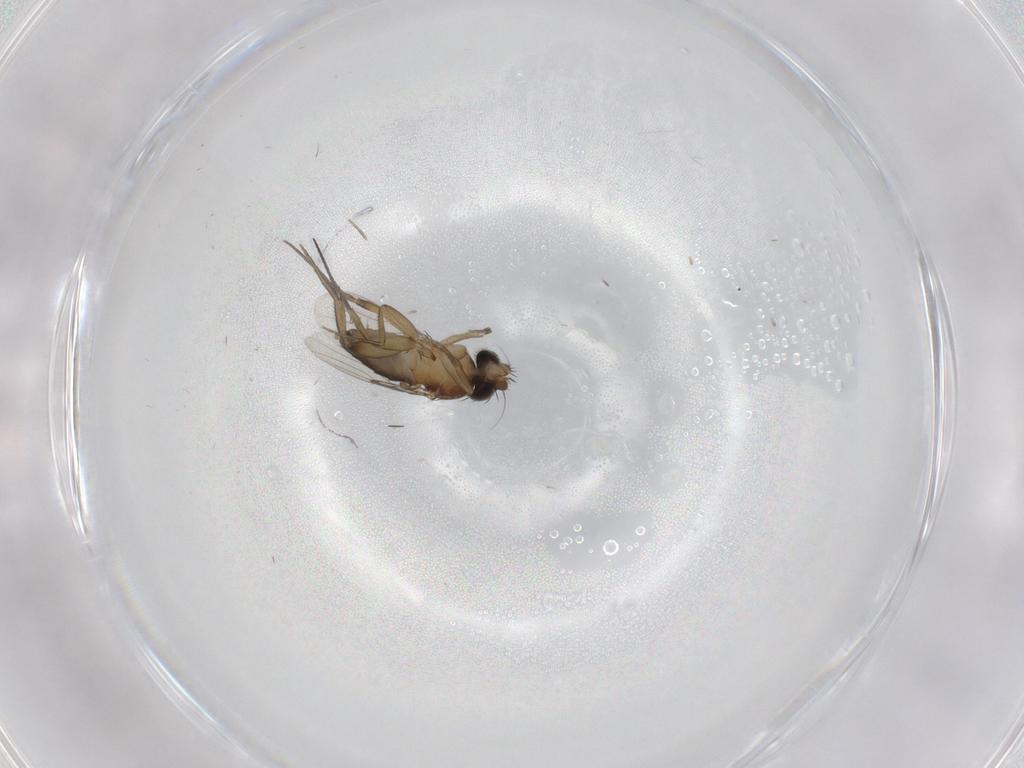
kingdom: Animalia
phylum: Arthropoda
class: Insecta
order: Diptera
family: Phoridae
